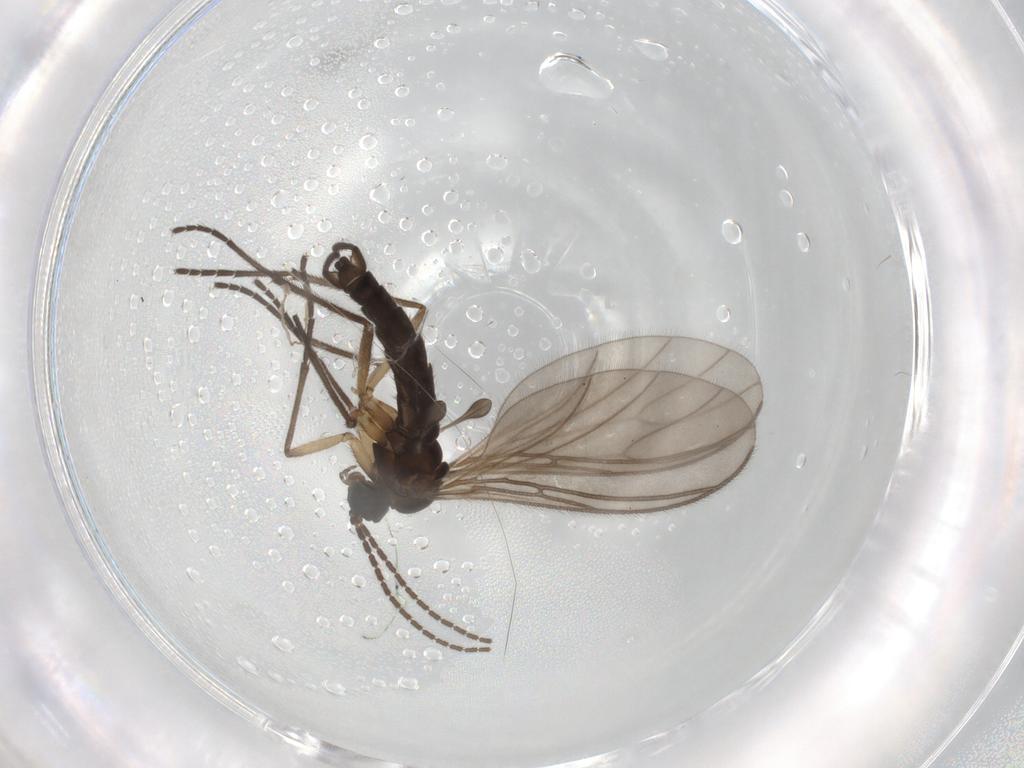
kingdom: Animalia
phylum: Arthropoda
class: Insecta
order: Diptera
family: Sciaridae
